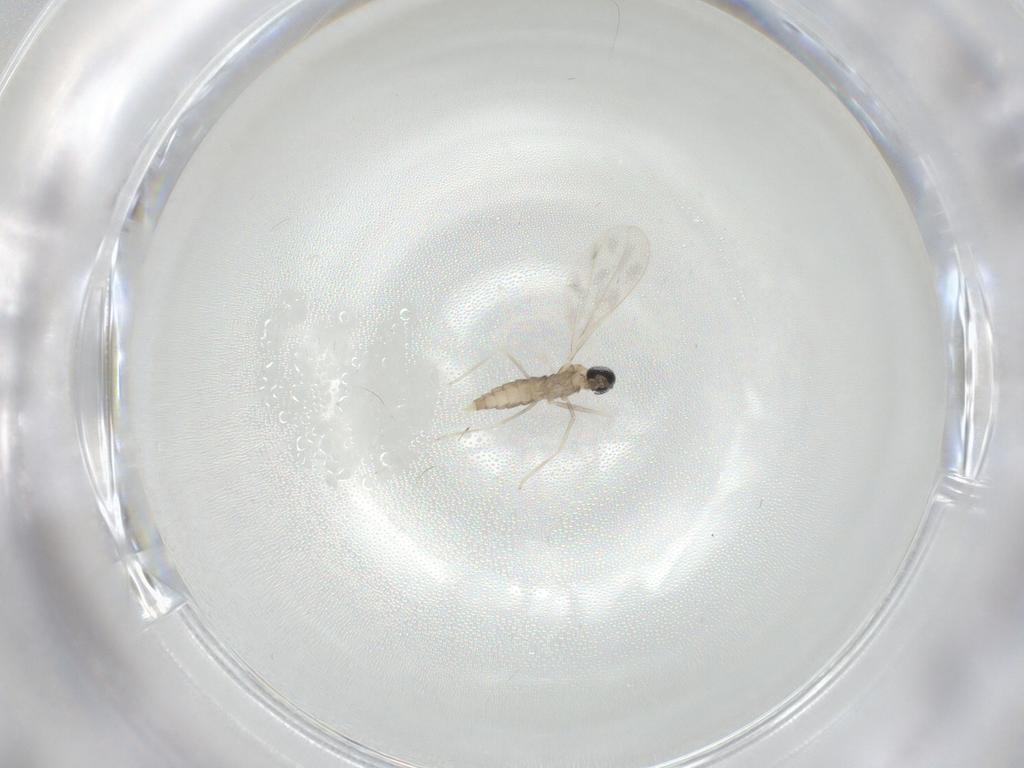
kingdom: Animalia
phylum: Arthropoda
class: Insecta
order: Diptera
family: Cecidomyiidae
